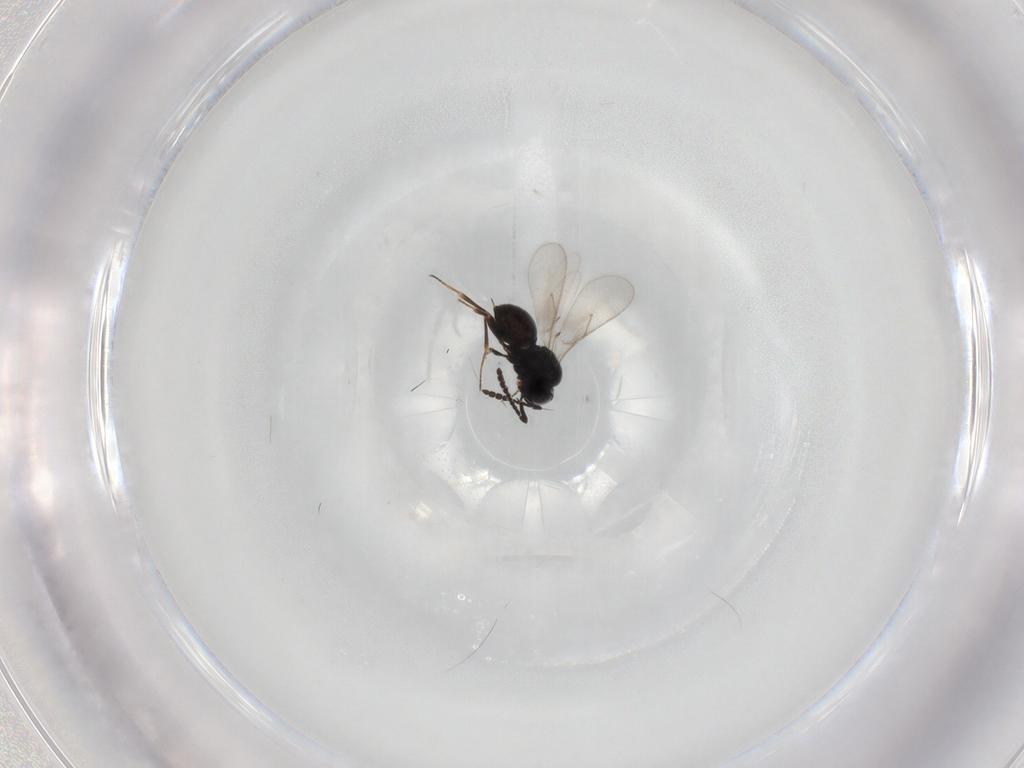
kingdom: Animalia
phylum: Arthropoda
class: Insecta
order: Hymenoptera
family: Scelionidae
